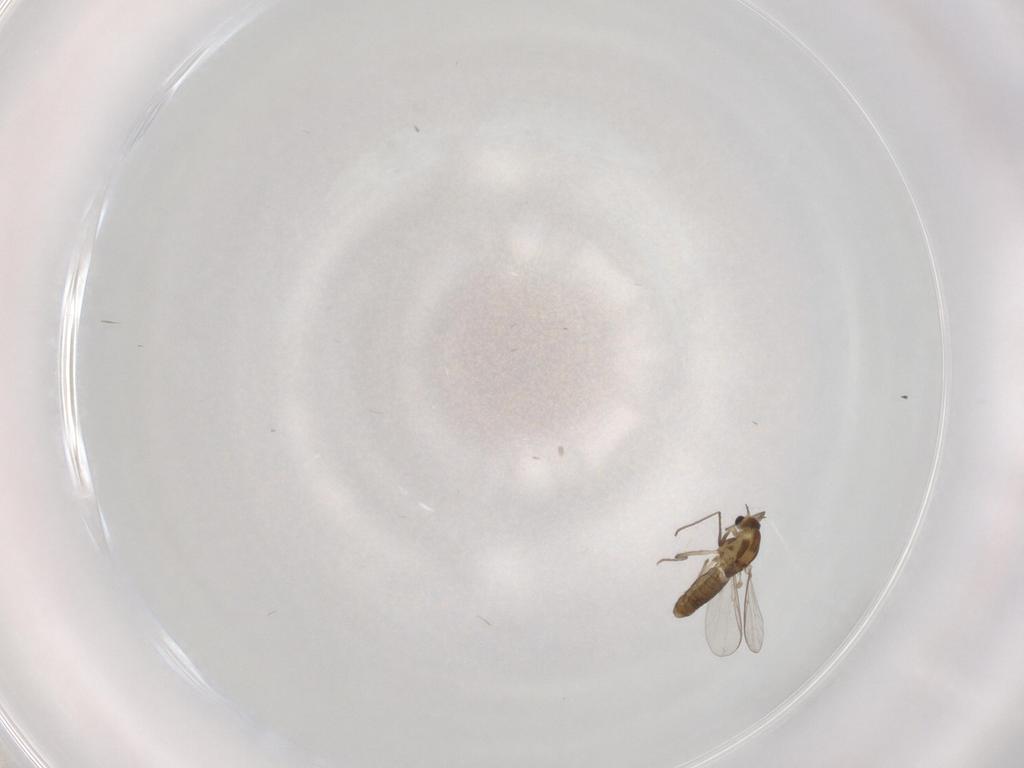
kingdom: Animalia
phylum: Arthropoda
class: Insecta
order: Diptera
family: Chironomidae
